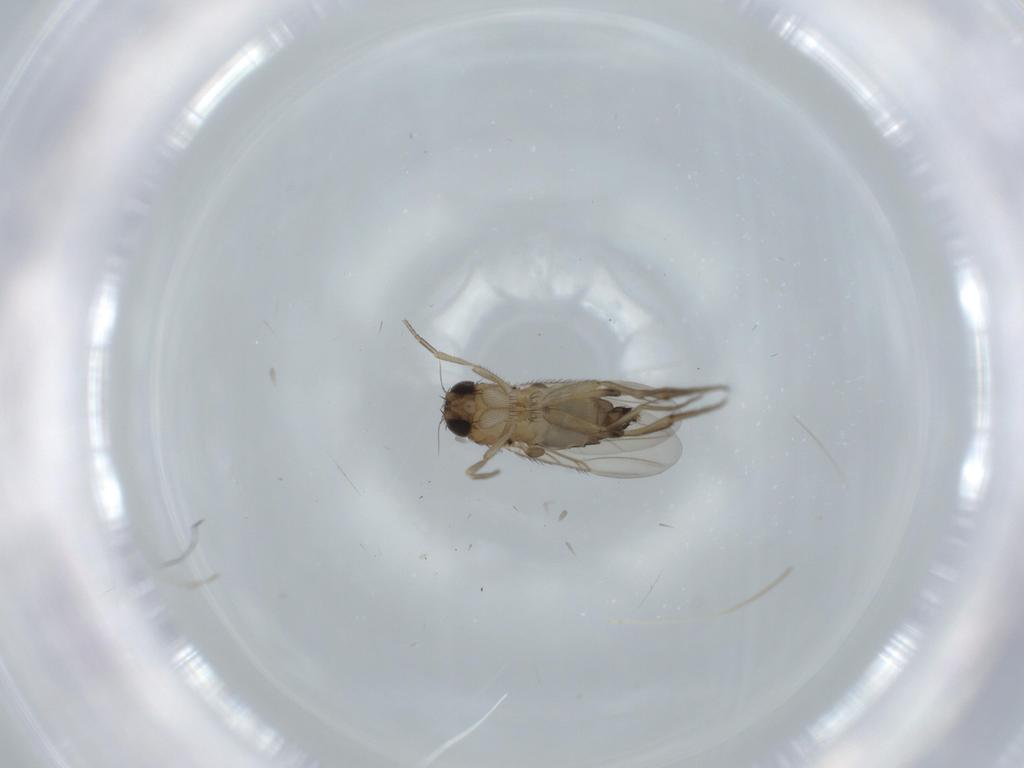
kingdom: Animalia
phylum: Arthropoda
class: Insecta
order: Diptera
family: Phoridae
